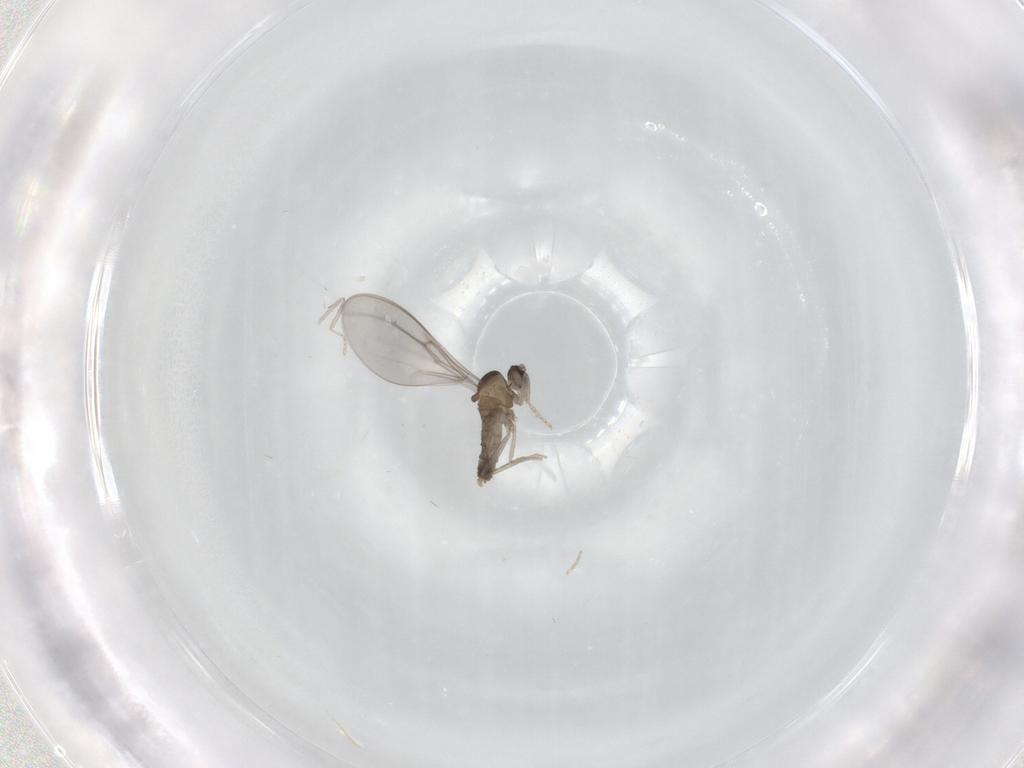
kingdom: Animalia
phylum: Arthropoda
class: Insecta
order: Diptera
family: Cecidomyiidae
